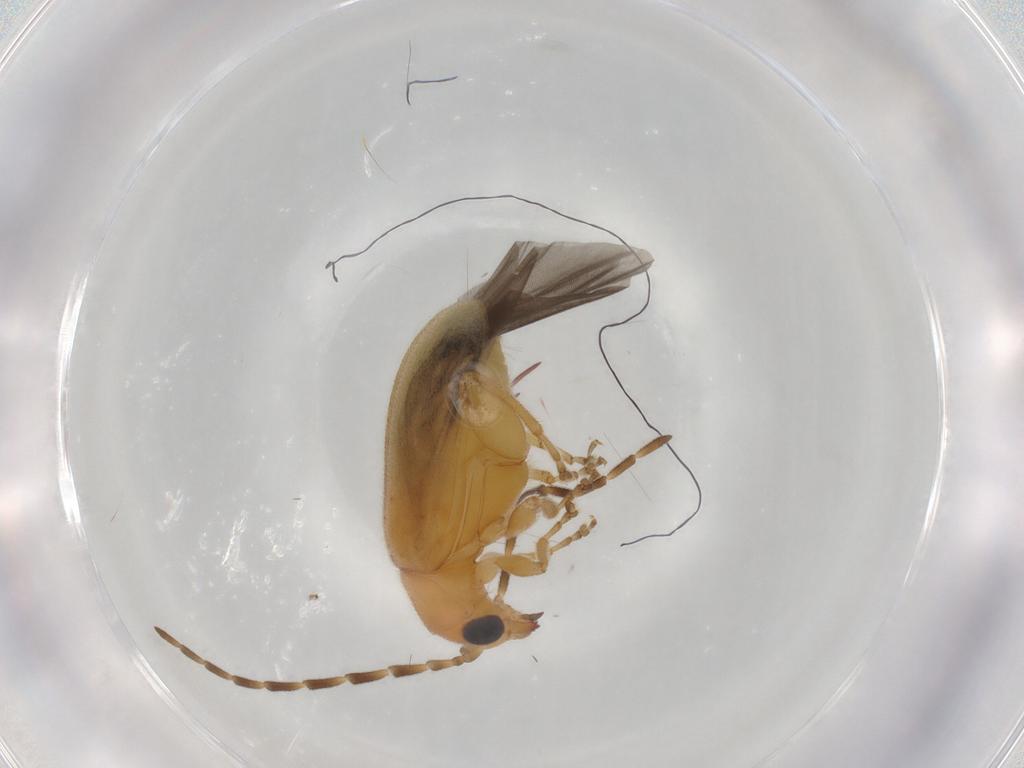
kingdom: Animalia
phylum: Arthropoda
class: Insecta
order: Coleoptera
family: Chrysomelidae
